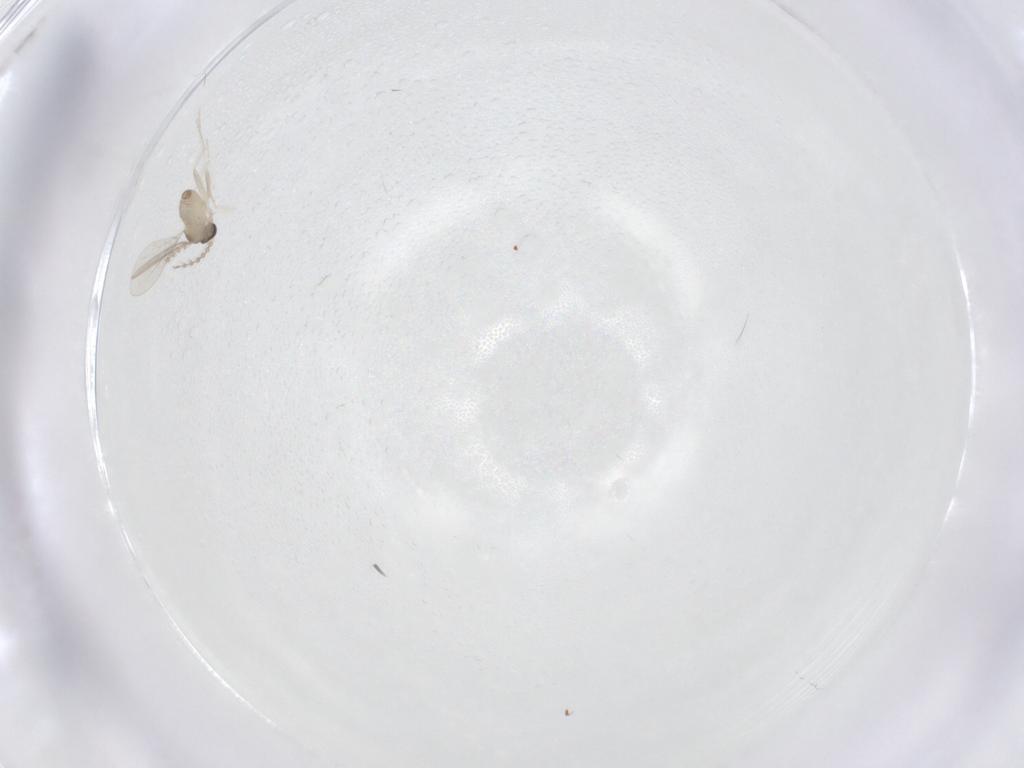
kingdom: Animalia
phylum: Arthropoda
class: Insecta
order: Diptera
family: Cecidomyiidae
